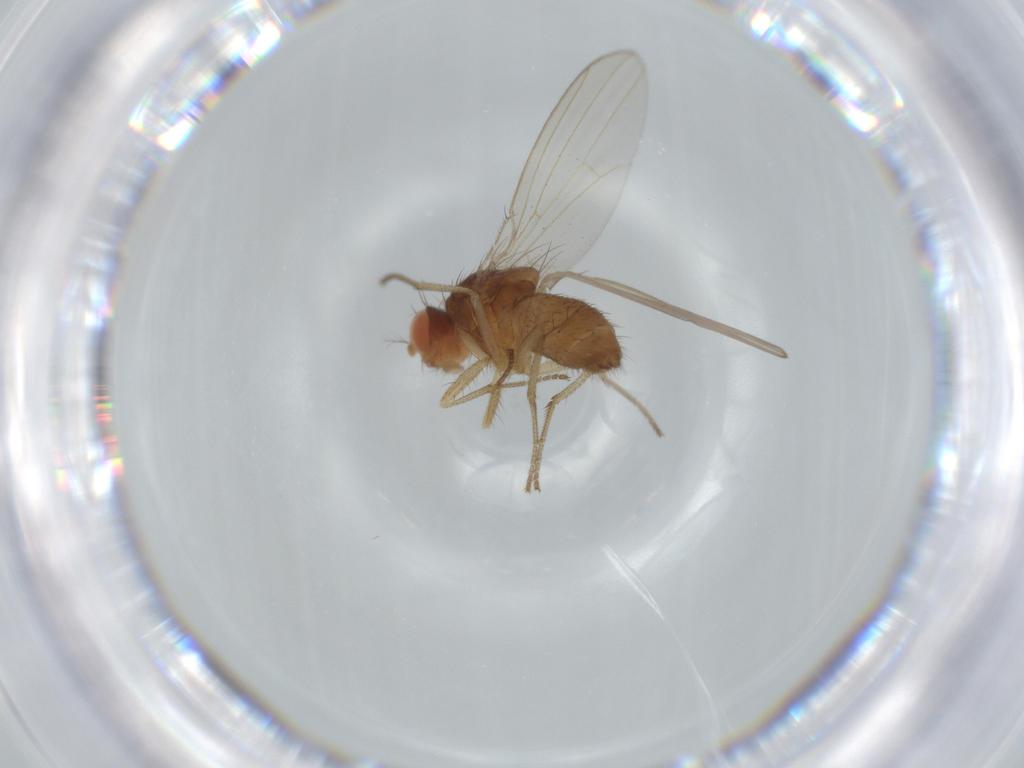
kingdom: Animalia
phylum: Arthropoda
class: Insecta
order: Diptera
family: Drosophilidae
